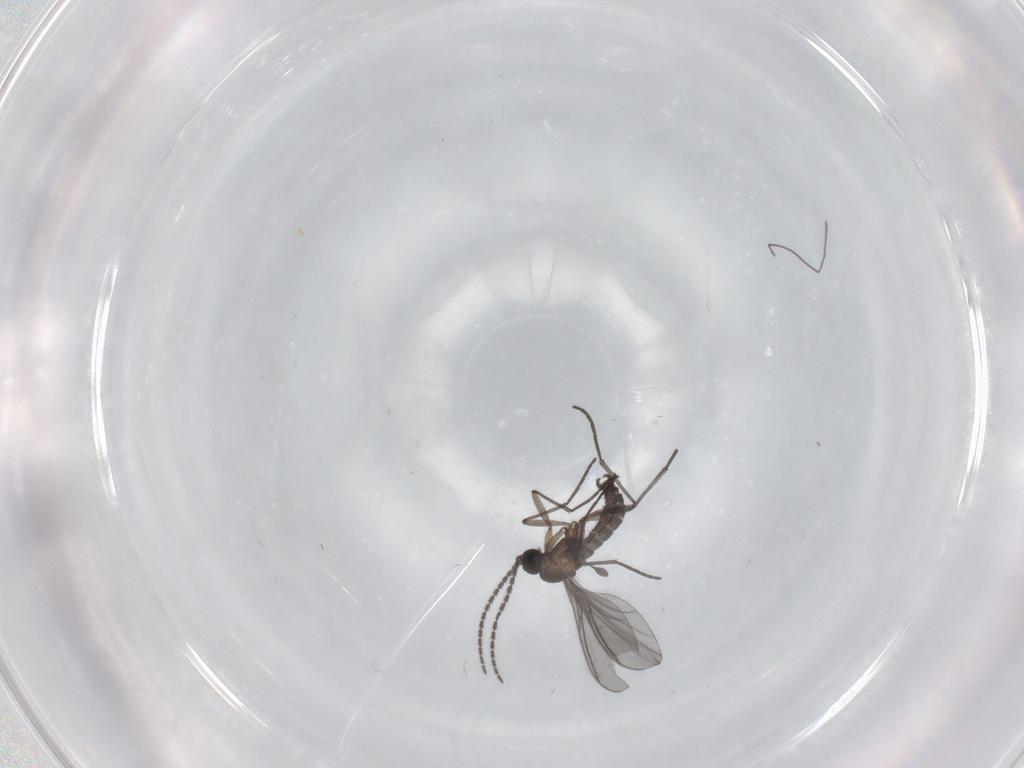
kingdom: Animalia
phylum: Arthropoda
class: Insecta
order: Diptera
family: Sciaridae
